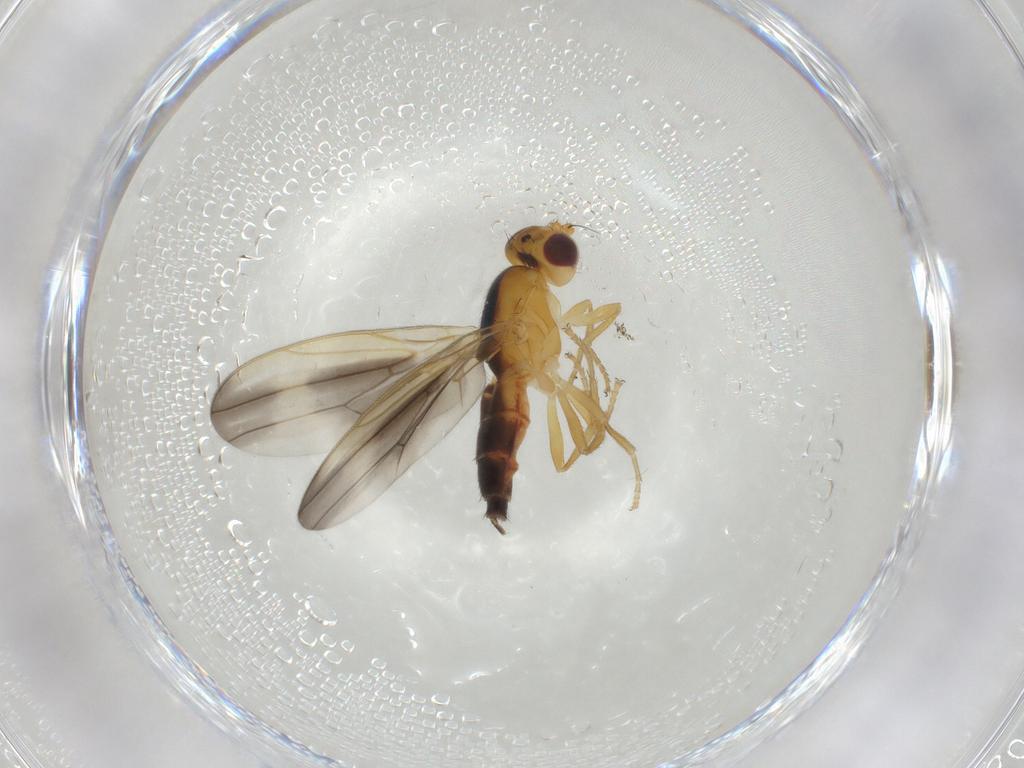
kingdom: Animalia
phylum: Arthropoda
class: Insecta
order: Diptera
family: Neurochaetidae
